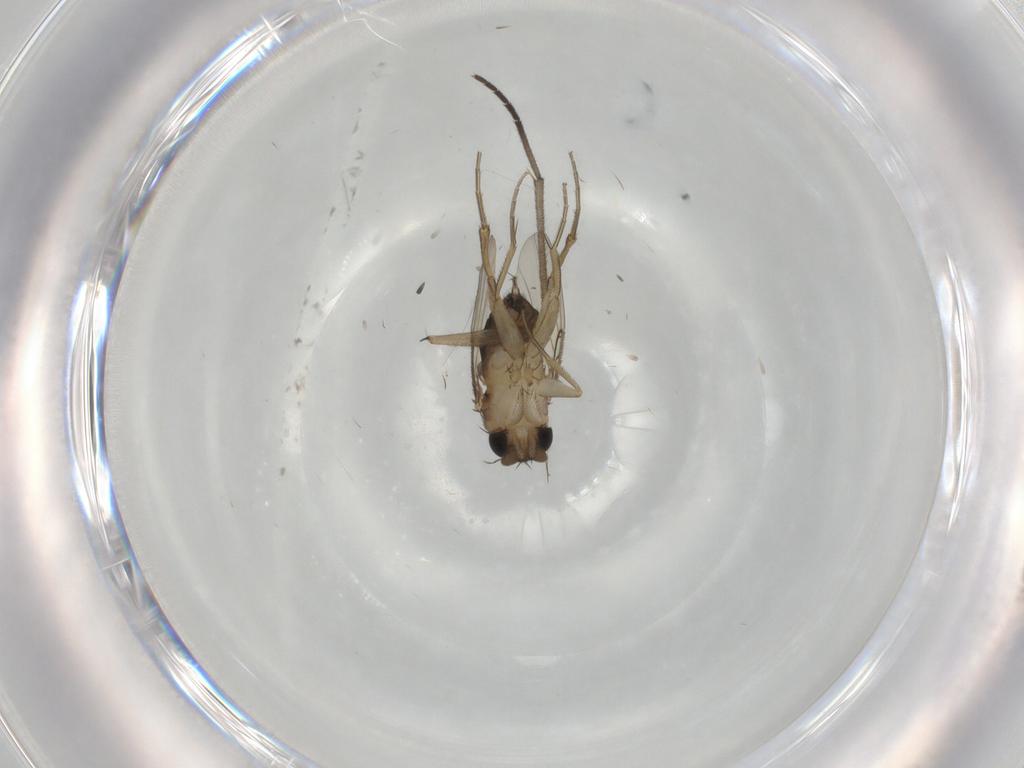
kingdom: Animalia
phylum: Arthropoda
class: Insecta
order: Diptera
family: Phoridae
